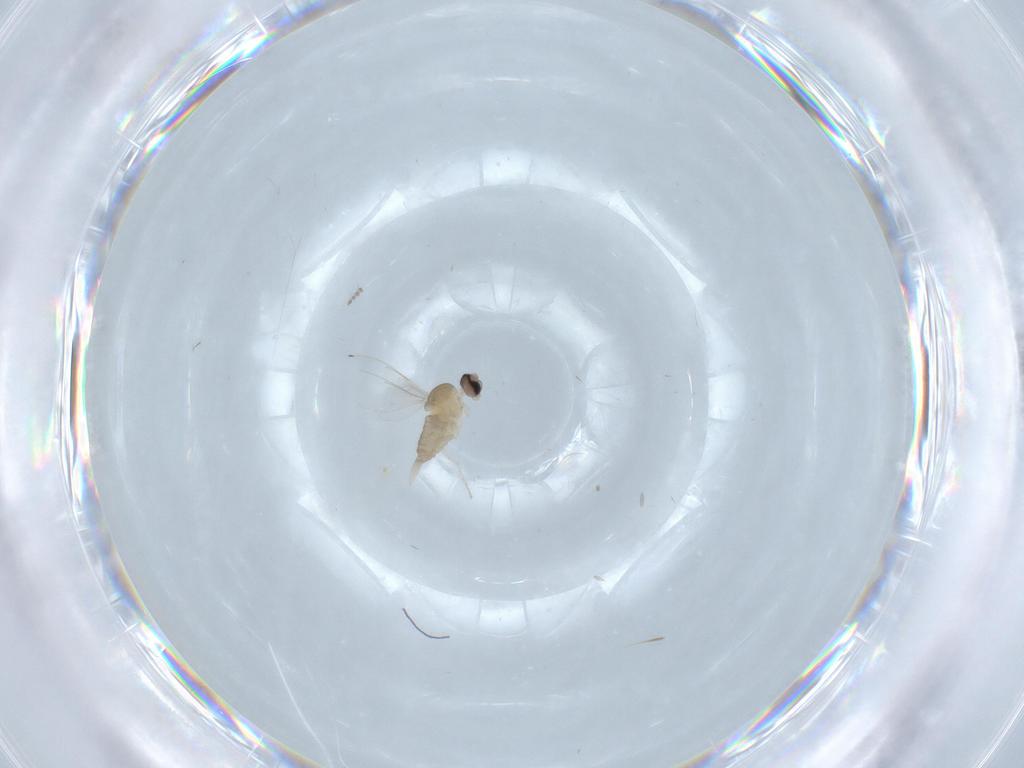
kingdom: Animalia
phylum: Arthropoda
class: Insecta
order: Diptera
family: Cecidomyiidae
